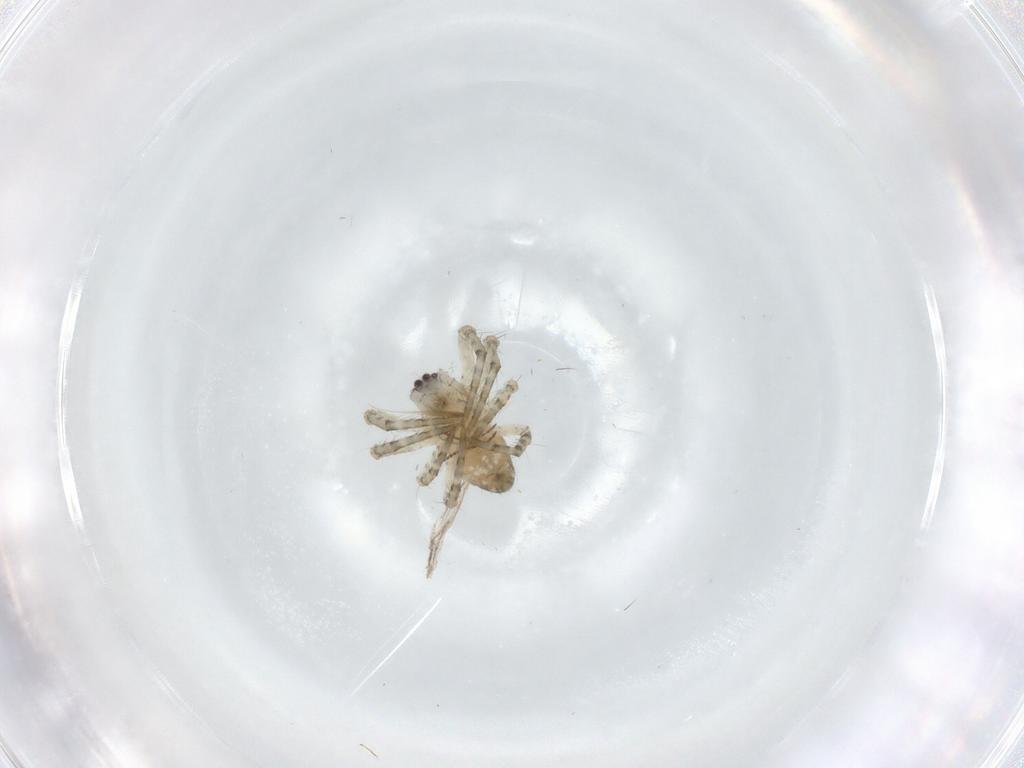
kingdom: Animalia
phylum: Arthropoda
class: Arachnida
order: Araneae
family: Araneidae
